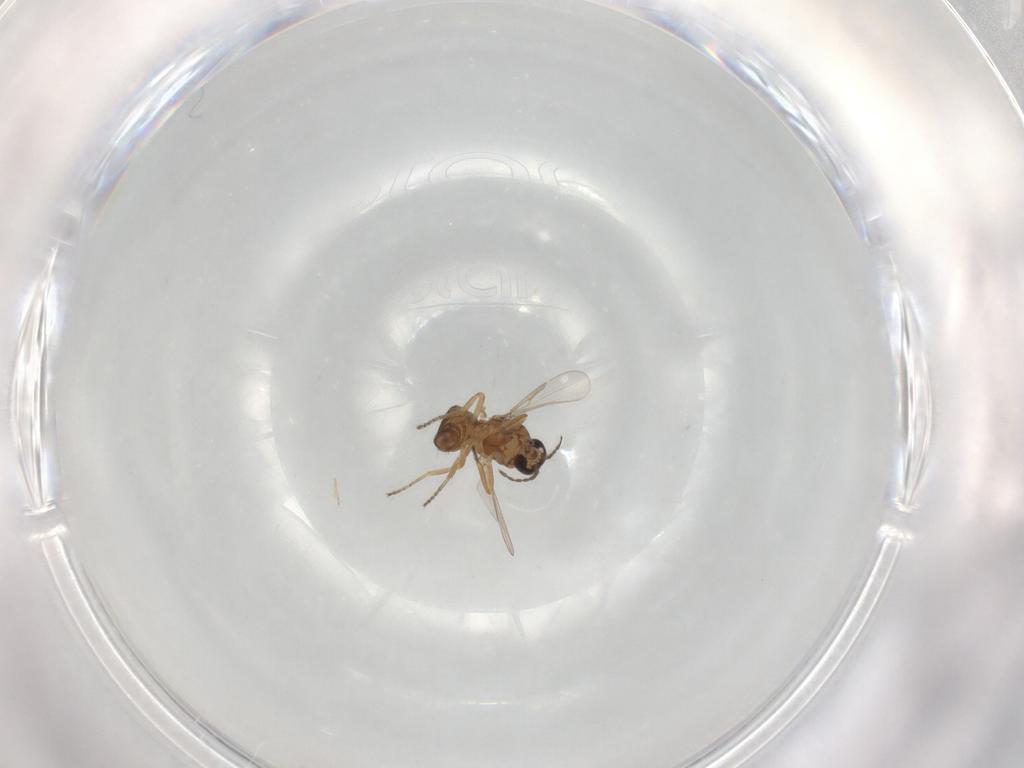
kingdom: Animalia
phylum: Arthropoda
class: Insecta
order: Diptera
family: Ceratopogonidae
